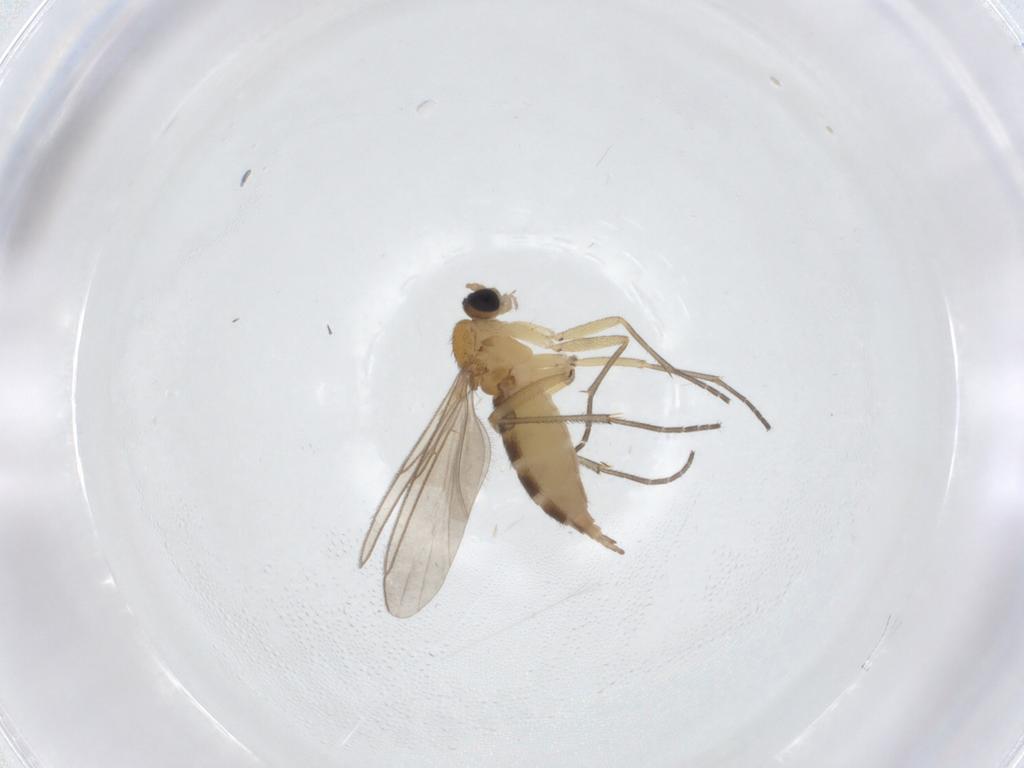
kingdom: Animalia
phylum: Arthropoda
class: Insecta
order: Diptera
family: Sciaridae
